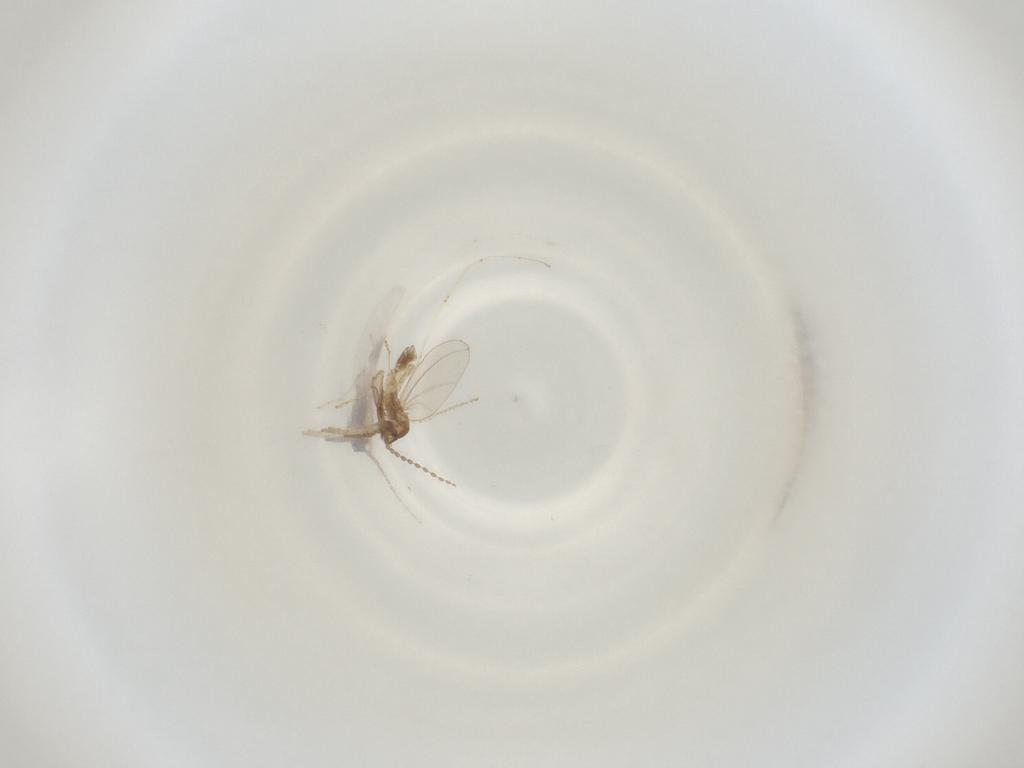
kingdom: Animalia
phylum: Arthropoda
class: Insecta
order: Diptera
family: Cecidomyiidae
